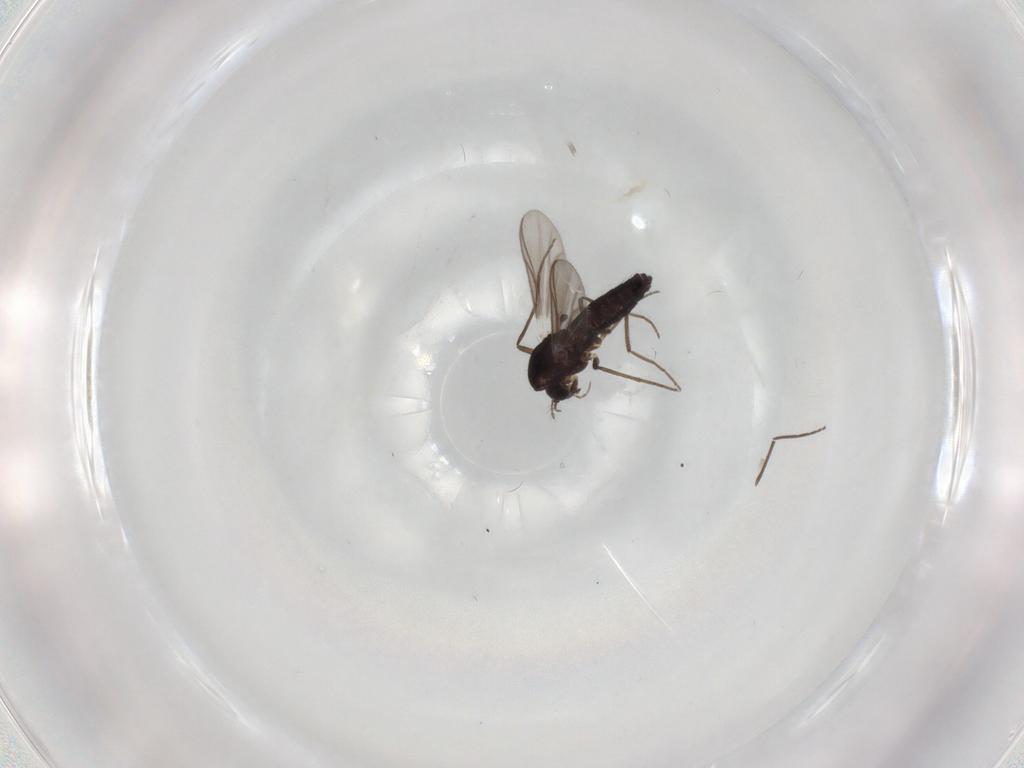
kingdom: Animalia
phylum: Arthropoda
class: Insecta
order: Diptera
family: Chironomidae
